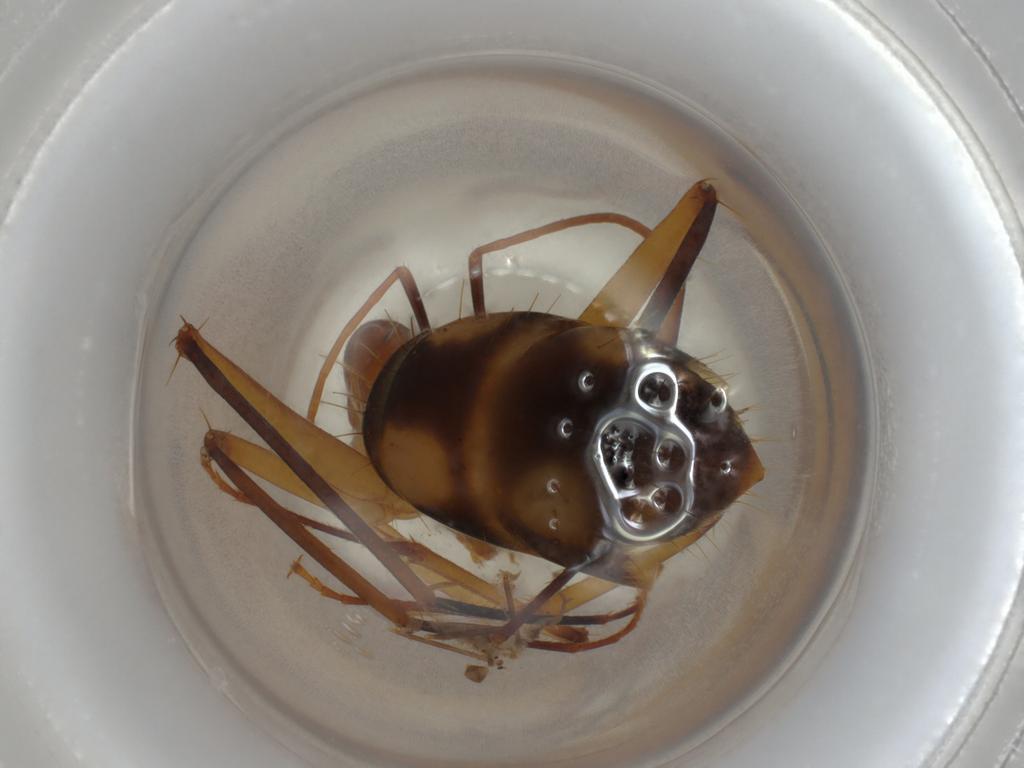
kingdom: Animalia
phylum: Arthropoda
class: Insecta
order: Hymenoptera
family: Formicidae
